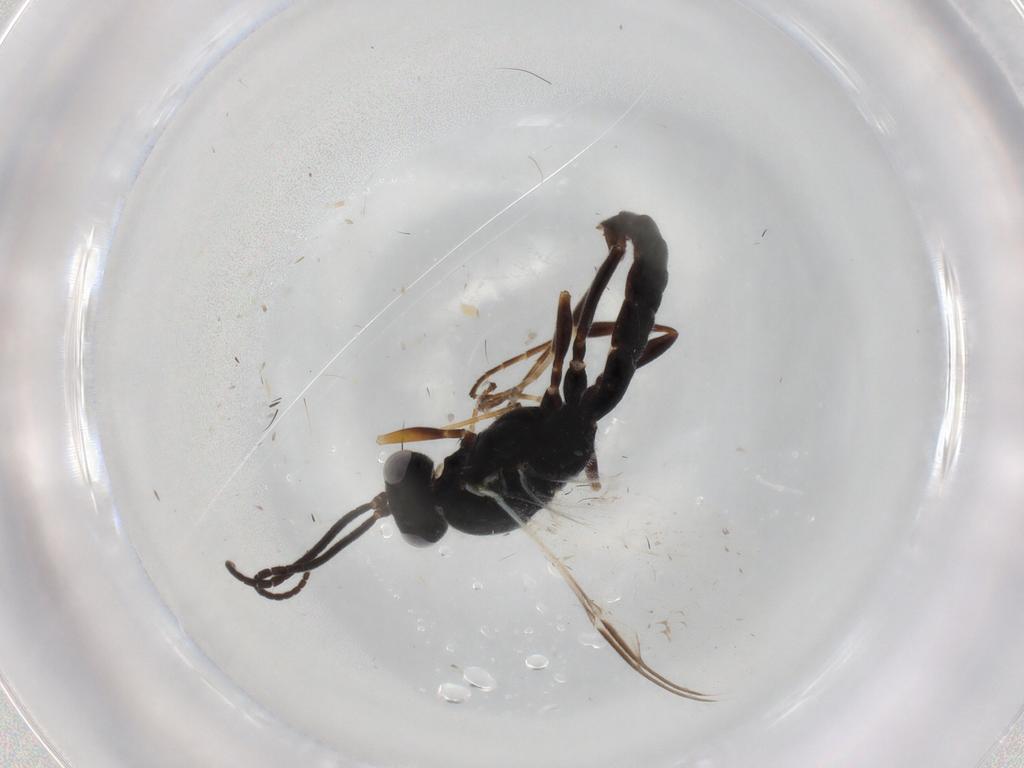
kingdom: Animalia
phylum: Arthropoda
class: Insecta
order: Hymenoptera
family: Ichneumonidae
